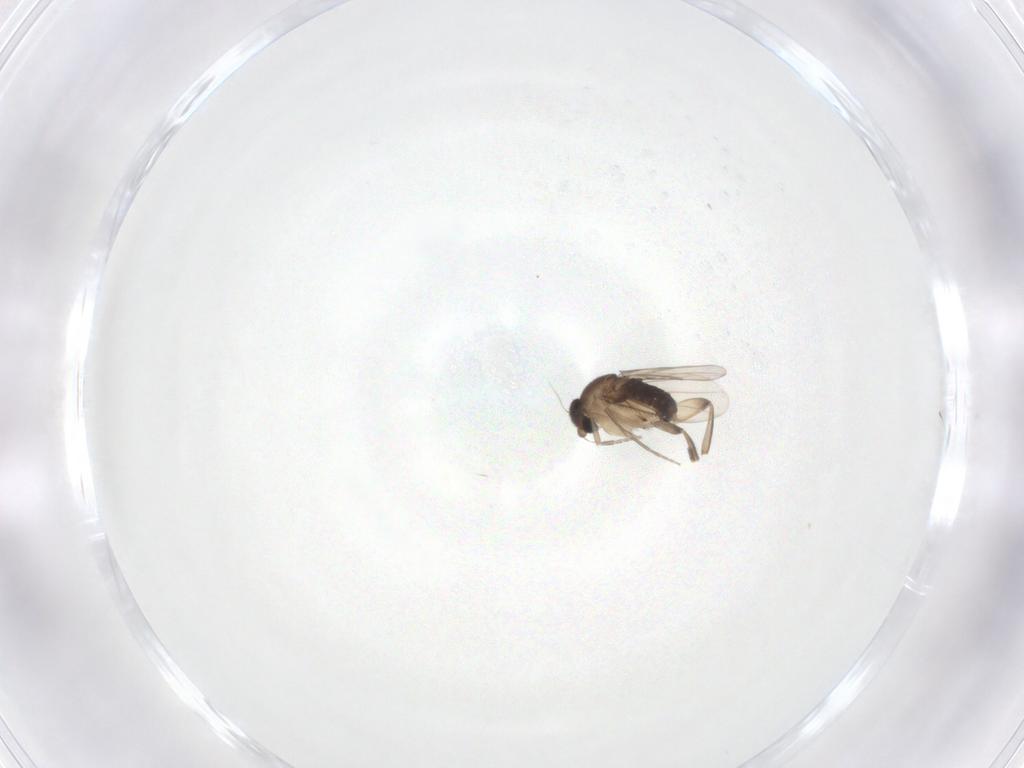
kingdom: Animalia
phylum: Arthropoda
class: Insecta
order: Diptera
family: Phoridae
